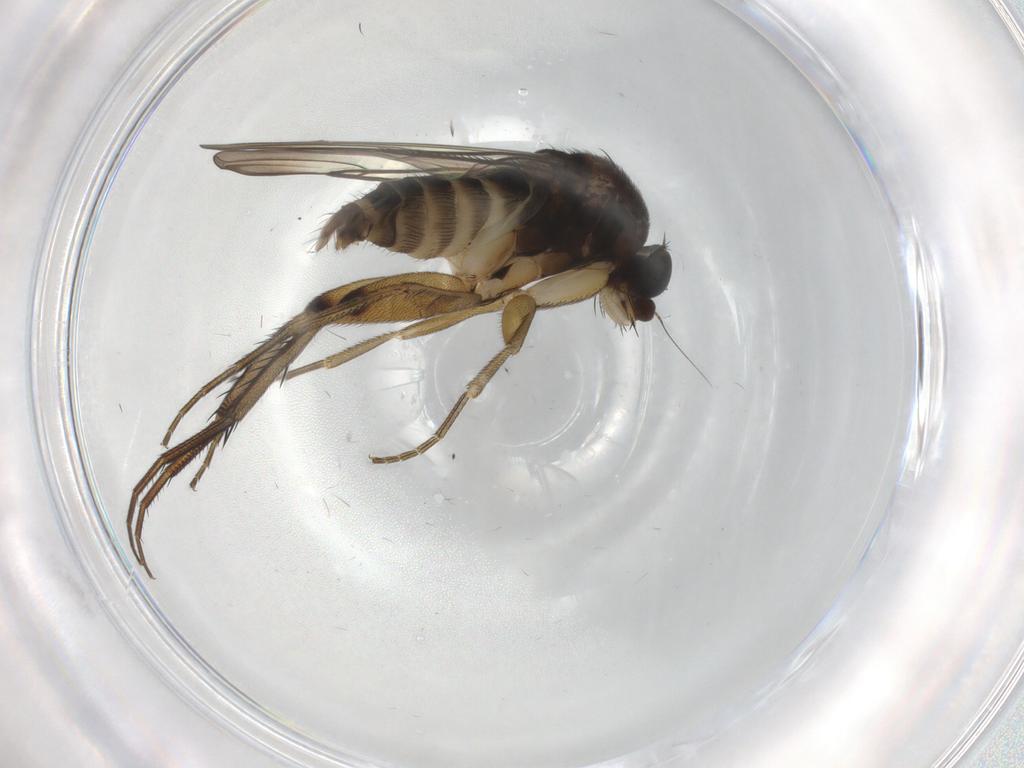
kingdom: Animalia
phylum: Arthropoda
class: Insecta
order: Diptera
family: Phoridae
